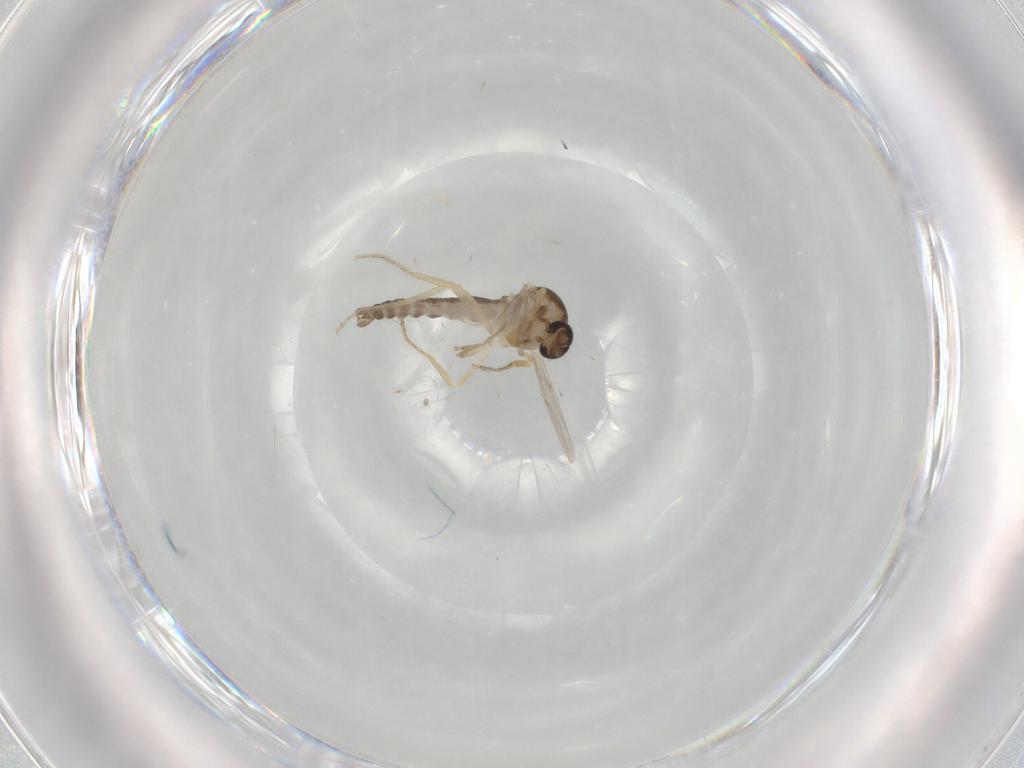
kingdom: Animalia
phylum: Arthropoda
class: Insecta
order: Diptera
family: Ceratopogonidae
